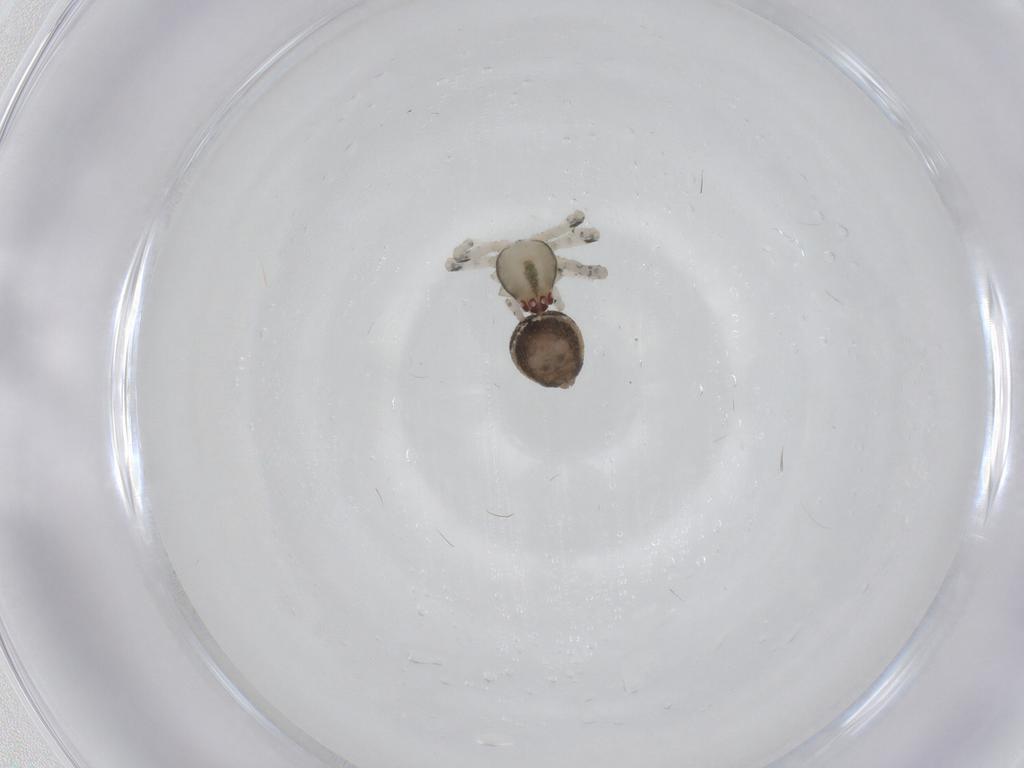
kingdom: Animalia
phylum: Arthropoda
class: Arachnida
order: Araneae
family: Theridiidae
